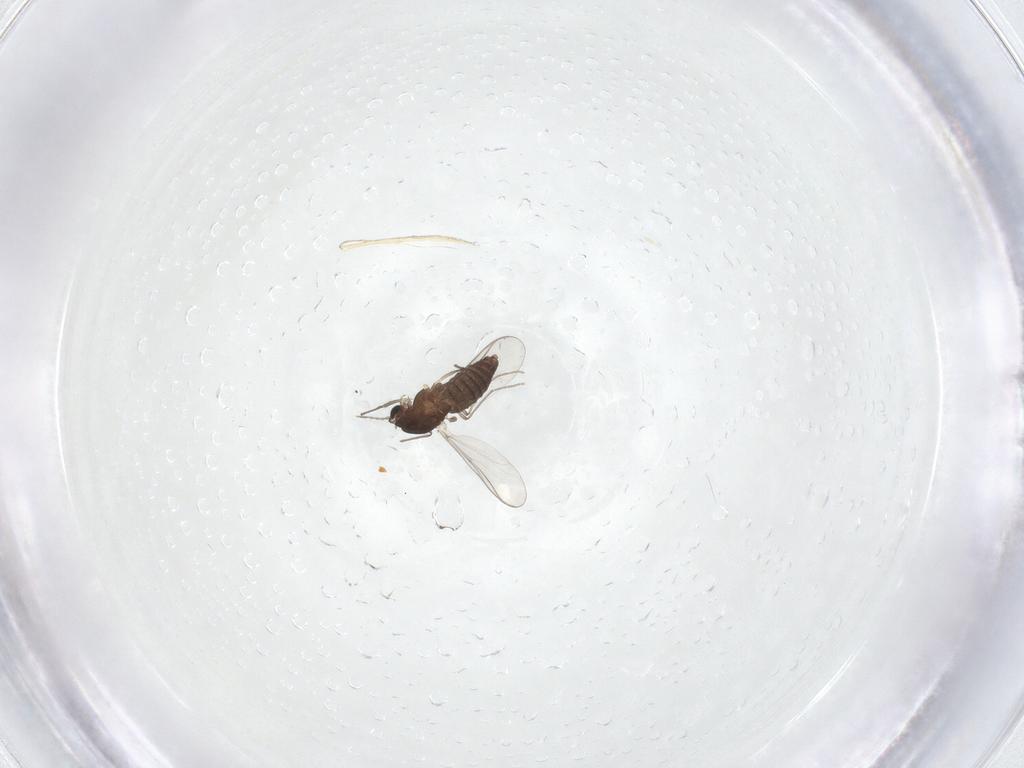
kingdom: Animalia
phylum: Arthropoda
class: Insecta
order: Diptera
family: Chironomidae
